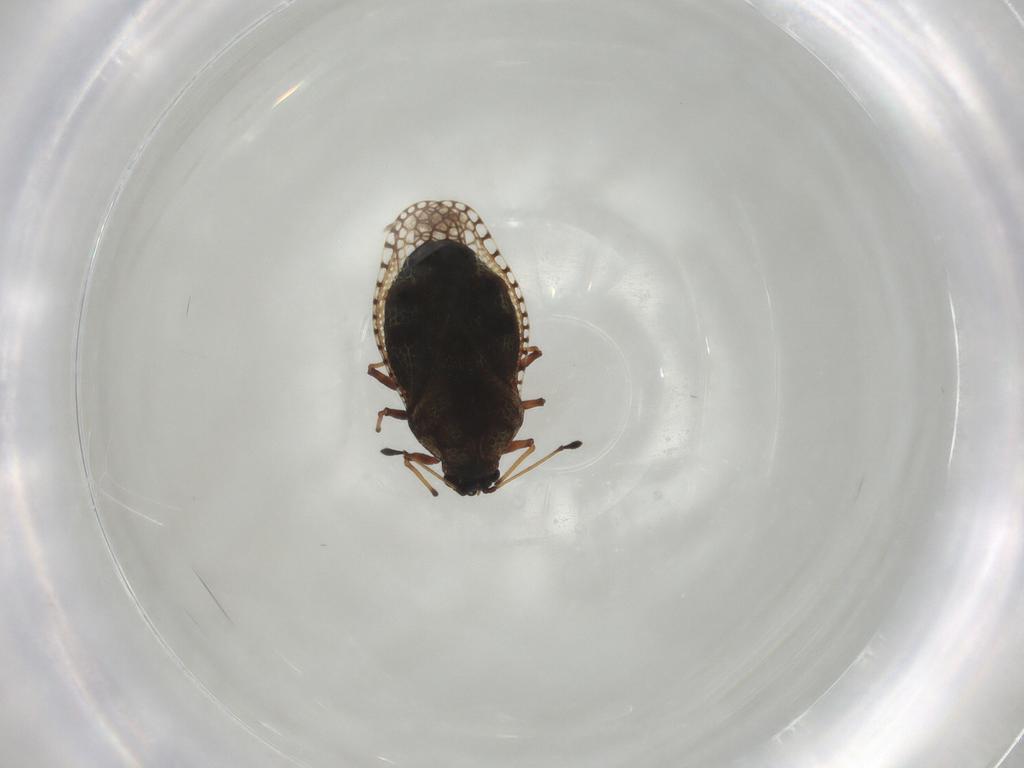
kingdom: Animalia
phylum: Arthropoda
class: Insecta
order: Hemiptera
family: Tingidae
